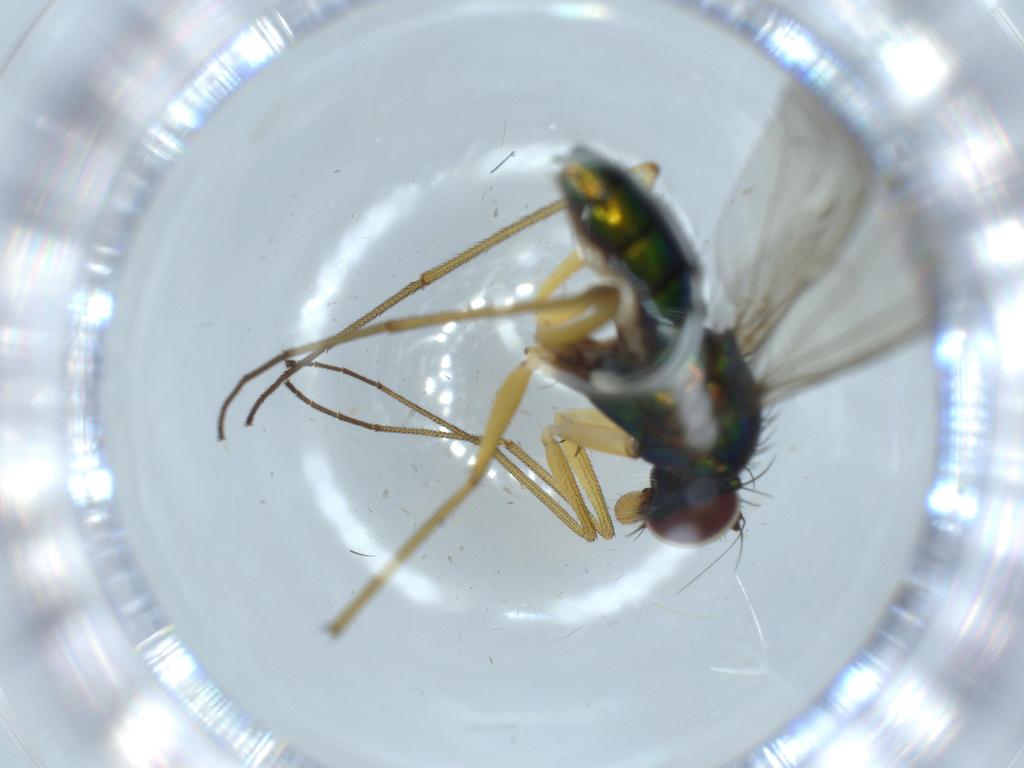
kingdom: Animalia
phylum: Arthropoda
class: Insecta
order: Diptera
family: Dolichopodidae
